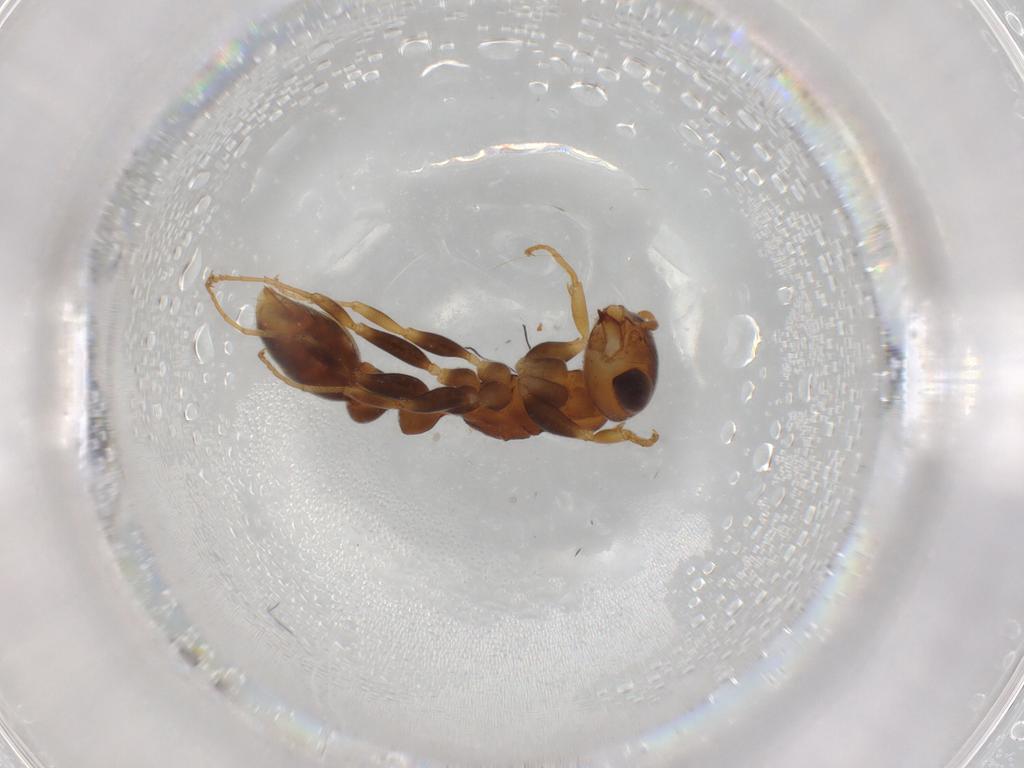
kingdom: Animalia
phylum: Arthropoda
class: Insecta
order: Hymenoptera
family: Formicidae
